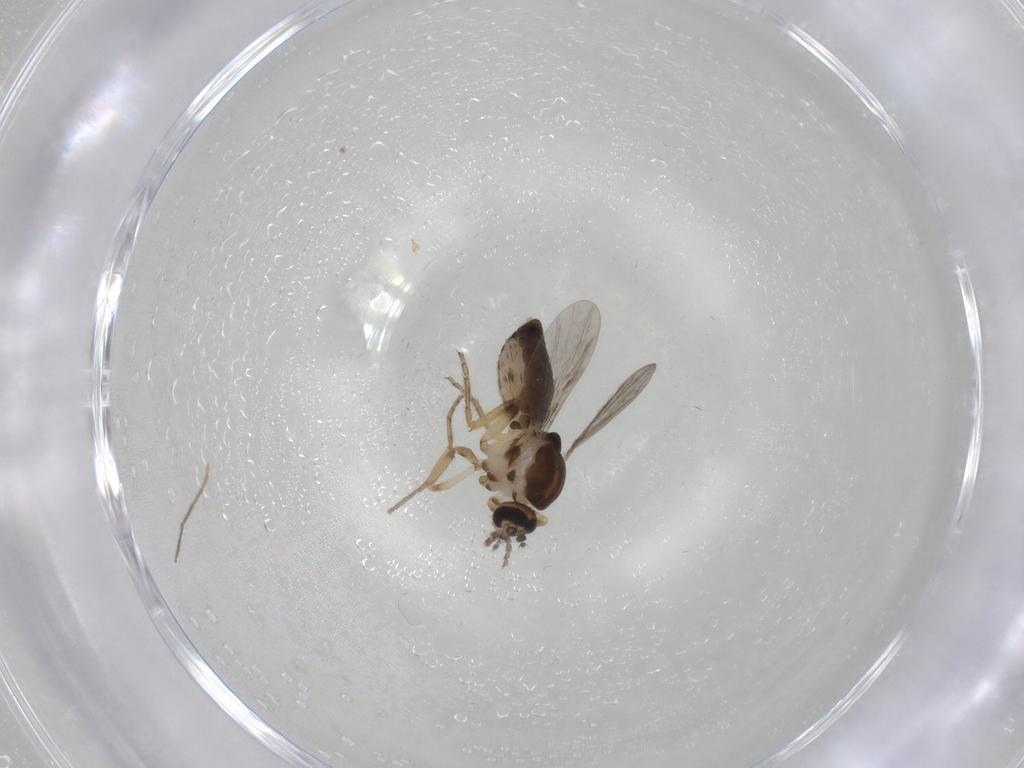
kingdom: Animalia
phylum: Arthropoda
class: Insecta
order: Diptera
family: Ceratopogonidae
